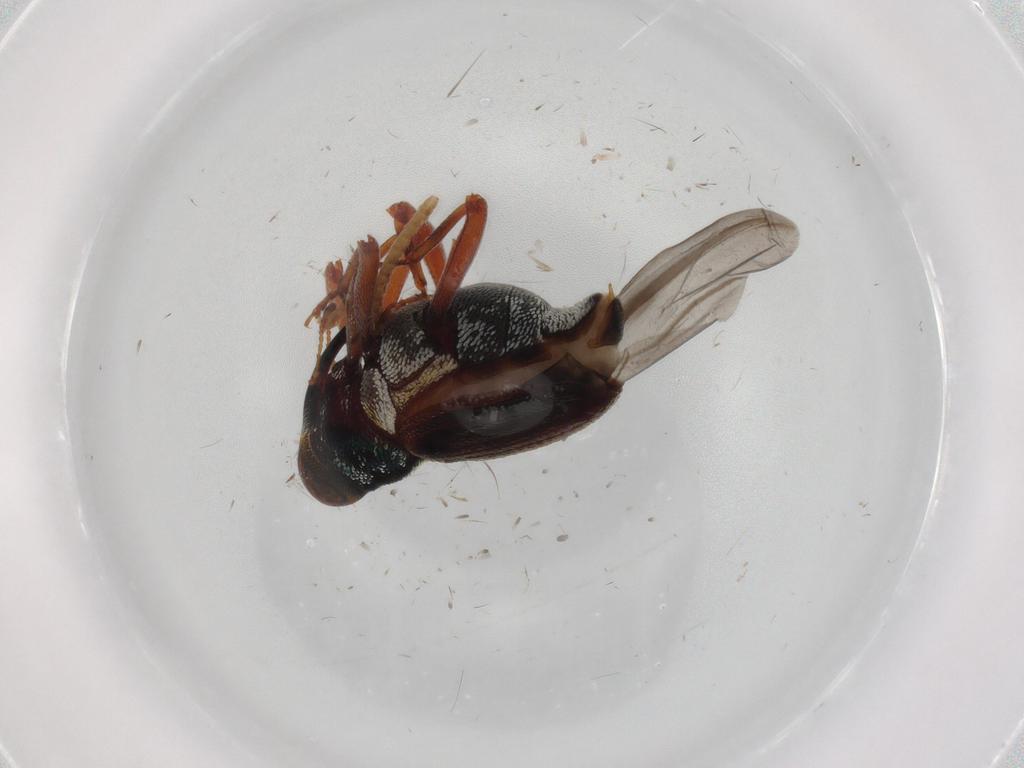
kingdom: Animalia
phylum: Arthropoda
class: Insecta
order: Coleoptera
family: Curculionidae
